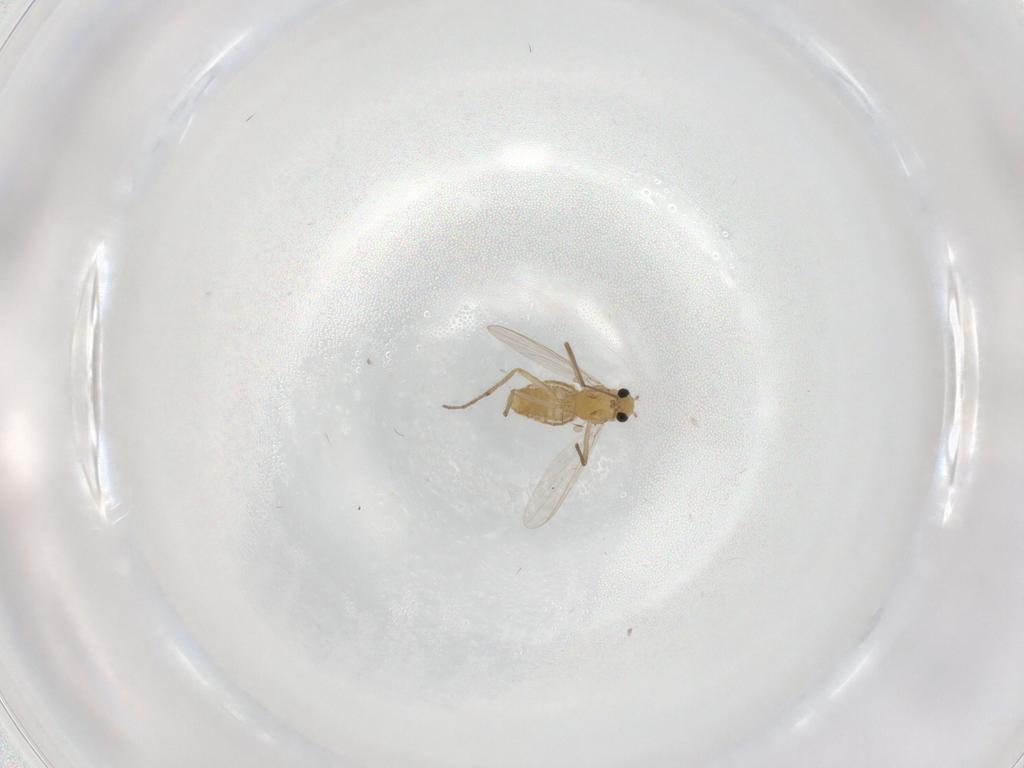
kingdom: Animalia
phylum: Arthropoda
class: Insecta
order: Diptera
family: Chironomidae
